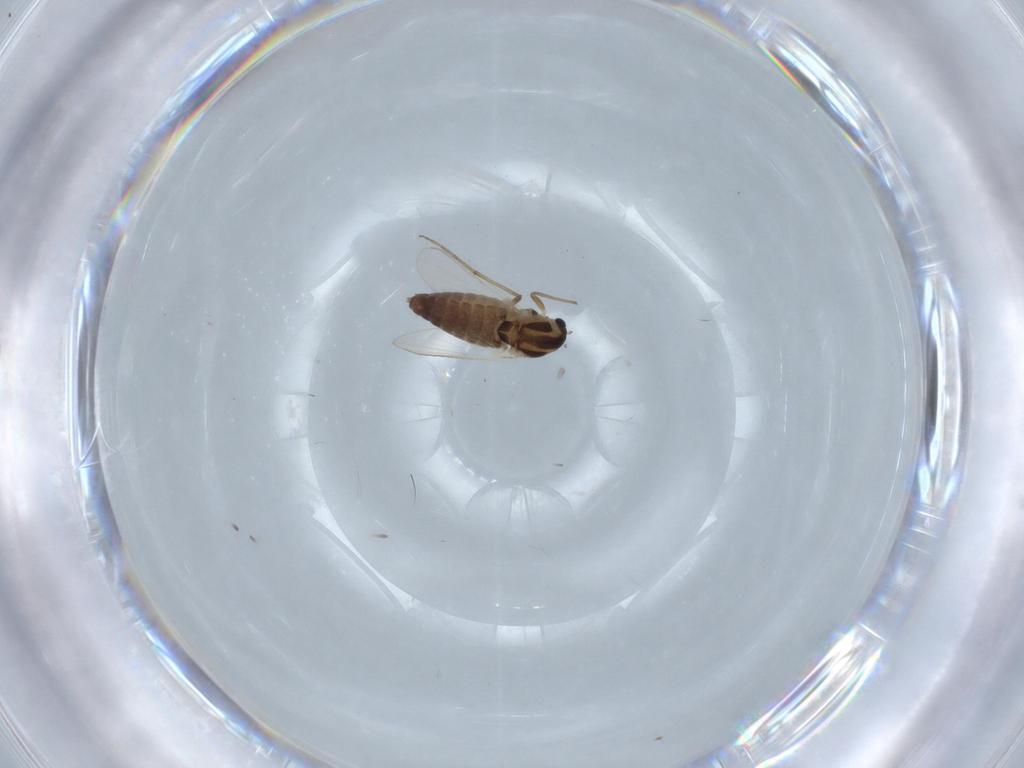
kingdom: Animalia
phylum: Arthropoda
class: Insecta
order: Diptera
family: Chironomidae
